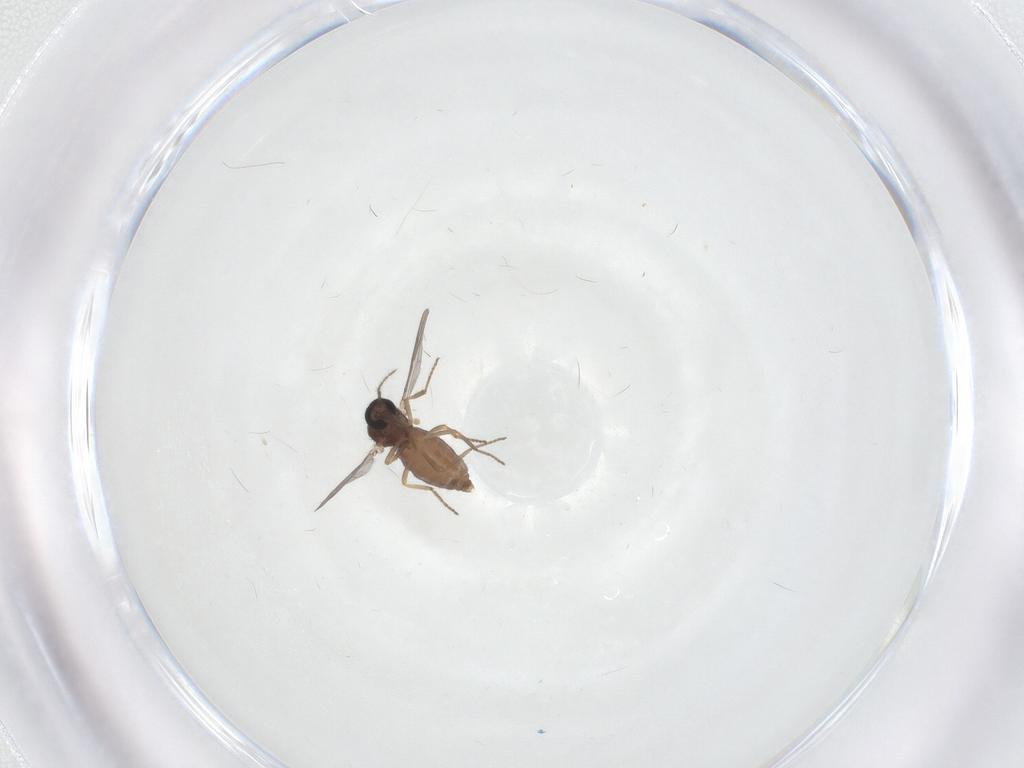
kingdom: Animalia
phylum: Arthropoda
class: Insecta
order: Diptera
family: Ceratopogonidae
